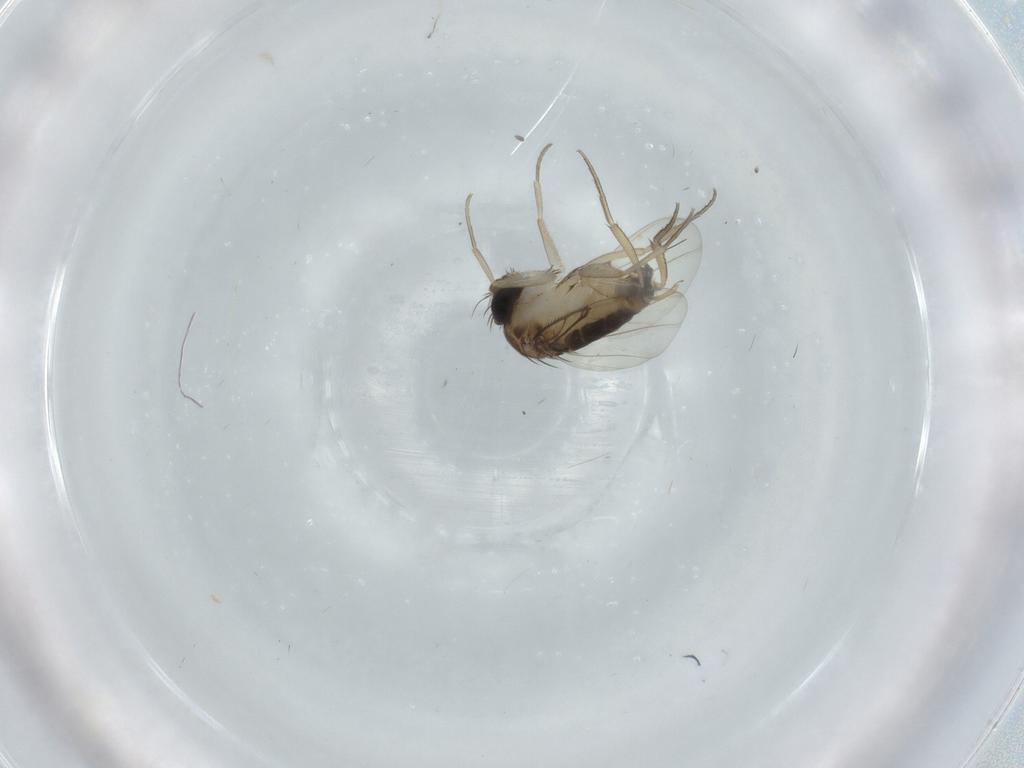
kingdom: Animalia
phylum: Arthropoda
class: Insecta
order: Diptera
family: Phoridae
